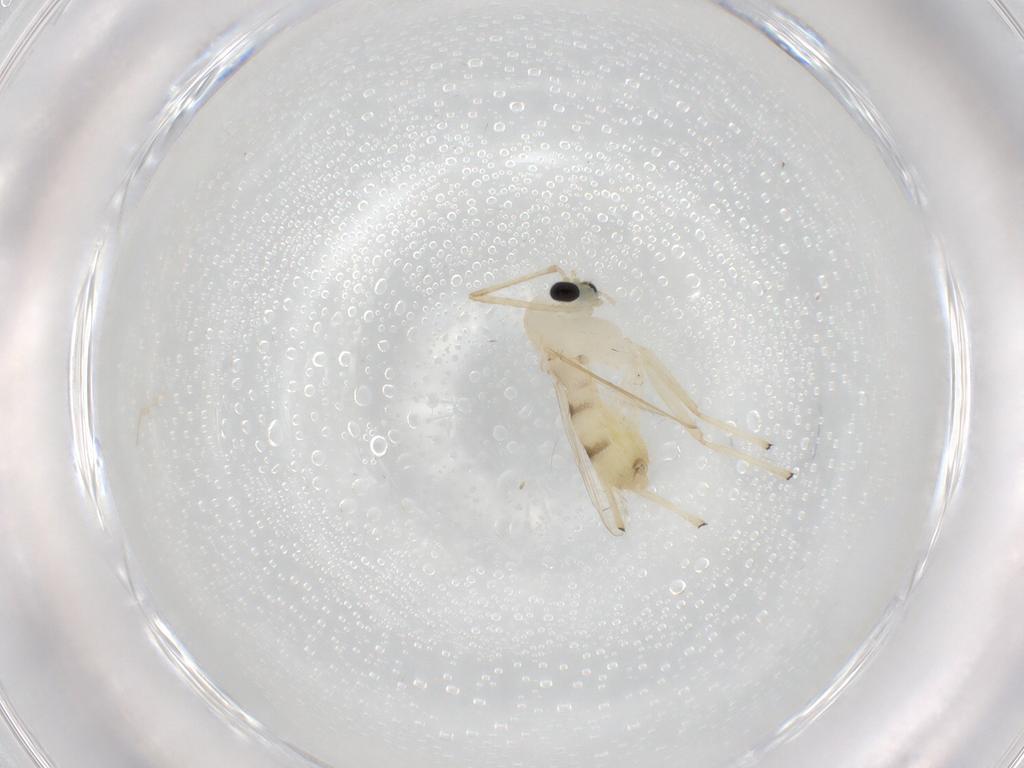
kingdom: Animalia
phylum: Arthropoda
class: Insecta
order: Diptera
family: Chironomidae
